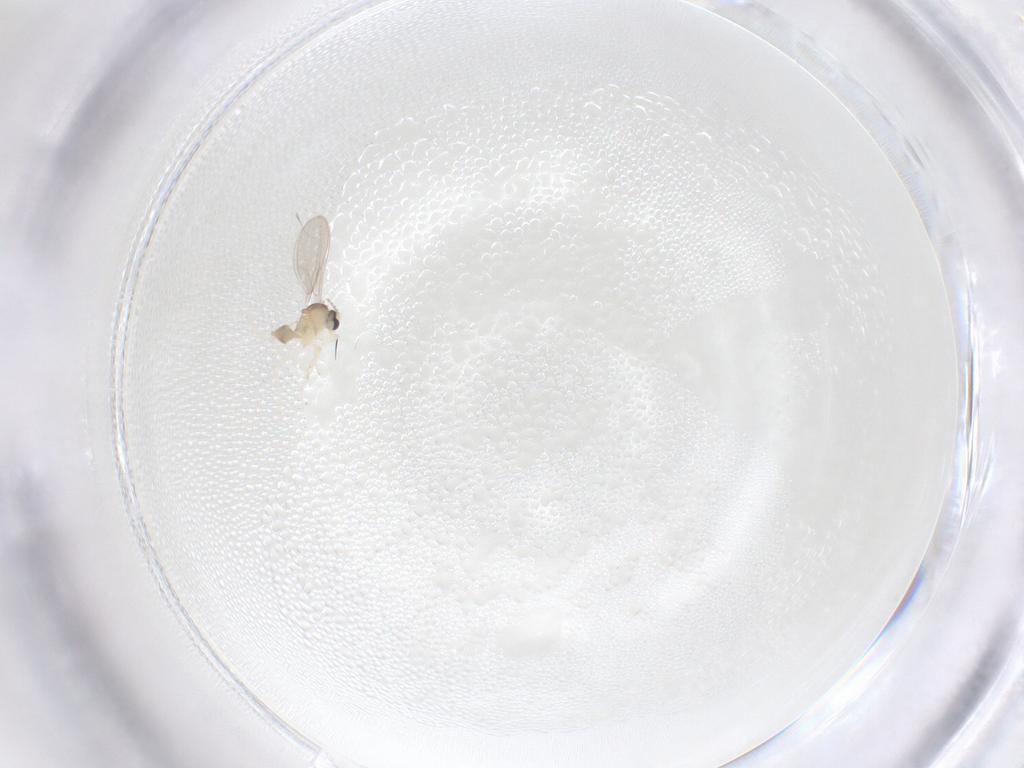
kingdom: Animalia
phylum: Arthropoda
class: Insecta
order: Diptera
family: Cecidomyiidae
